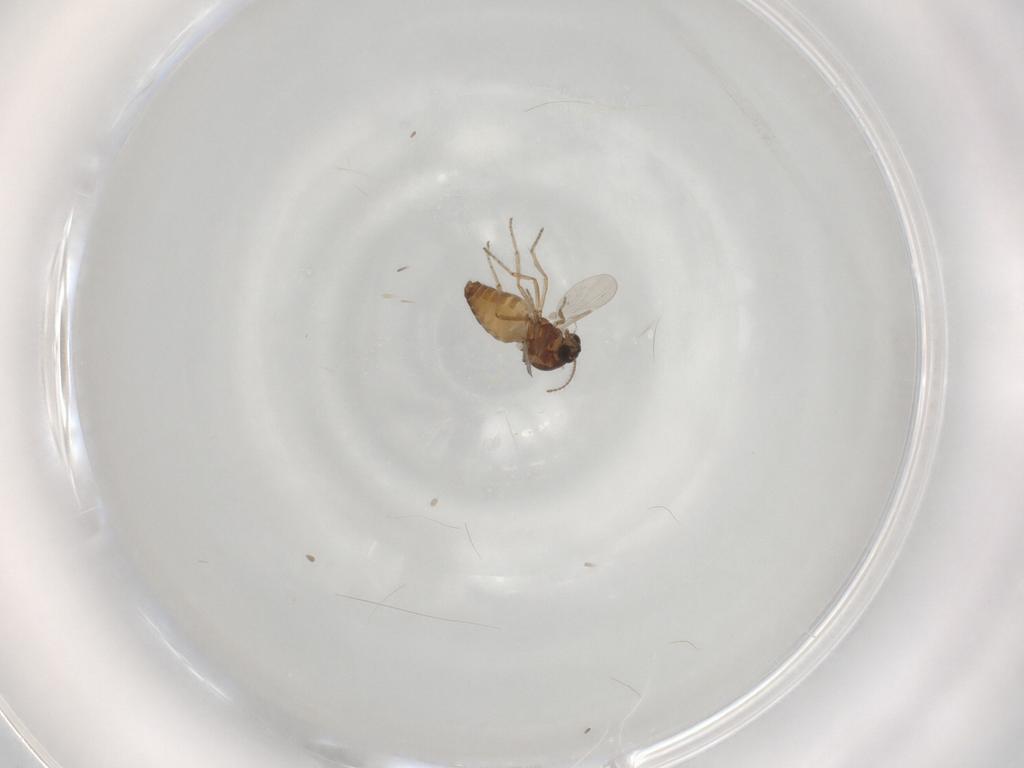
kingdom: Animalia
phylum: Arthropoda
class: Insecta
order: Diptera
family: Ceratopogonidae
